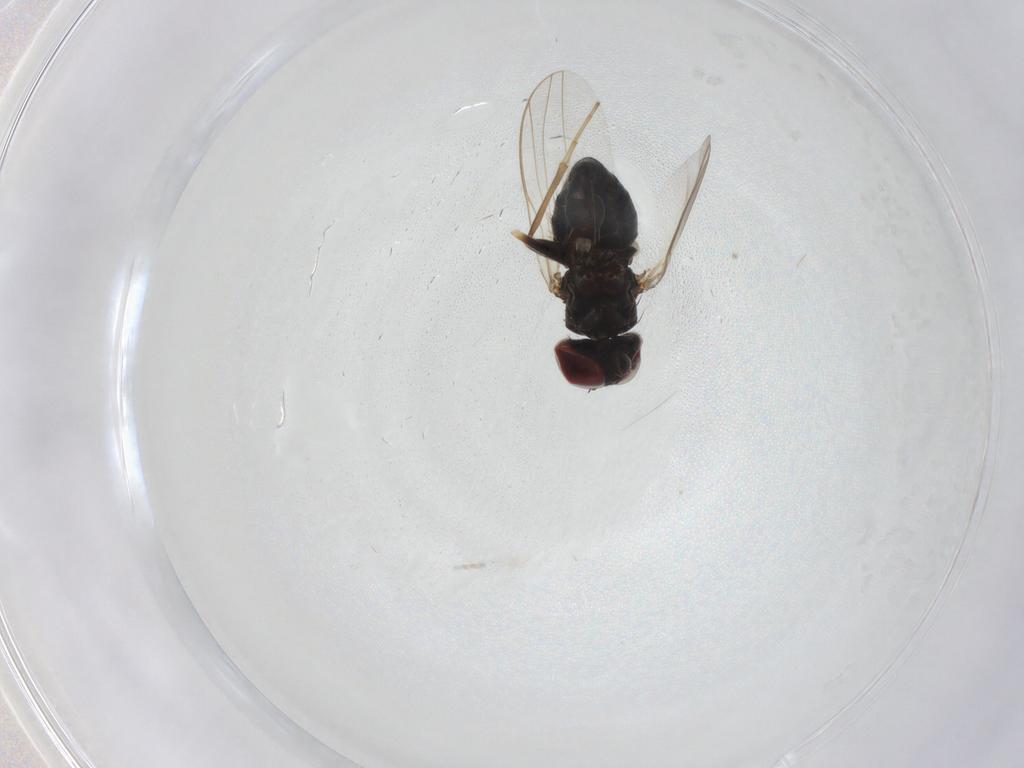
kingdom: Animalia
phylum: Arthropoda
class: Insecta
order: Diptera
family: Dolichopodidae
